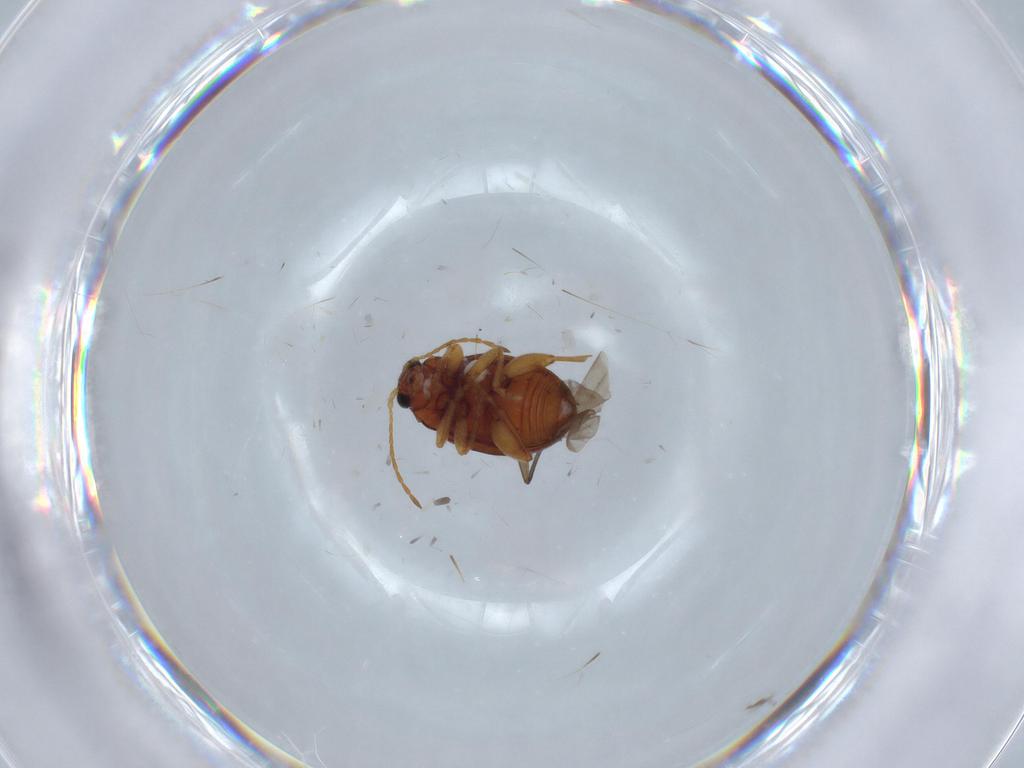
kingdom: Animalia
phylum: Arthropoda
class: Insecta
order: Coleoptera
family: Chrysomelidae
